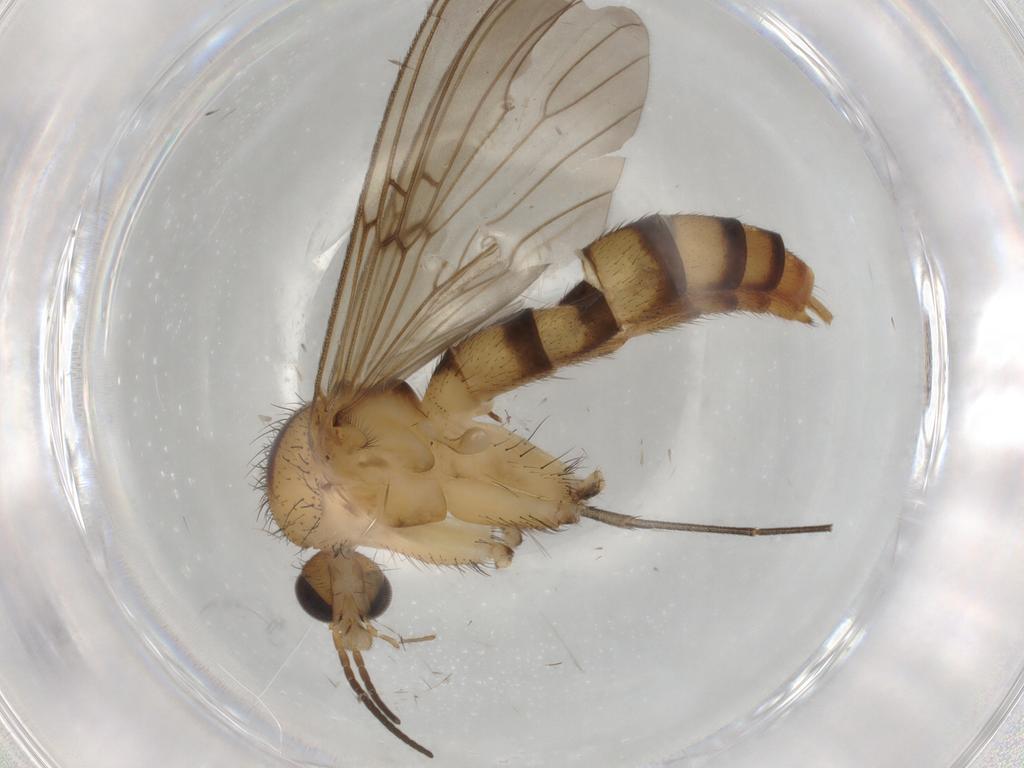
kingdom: Animalia
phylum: Arthropoda
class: Insecta
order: Diptera
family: Mycetophilidae
